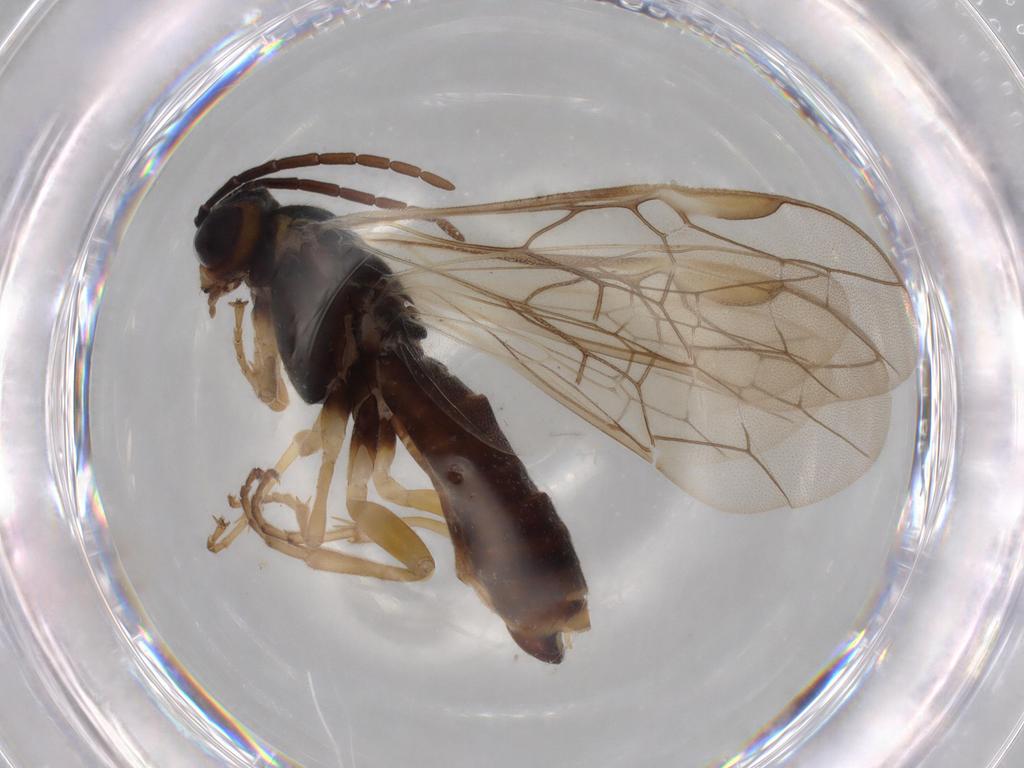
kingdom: Animalia
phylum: Arthropoda
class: Insecta
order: Hymenoptera
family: Tenthredinidae
